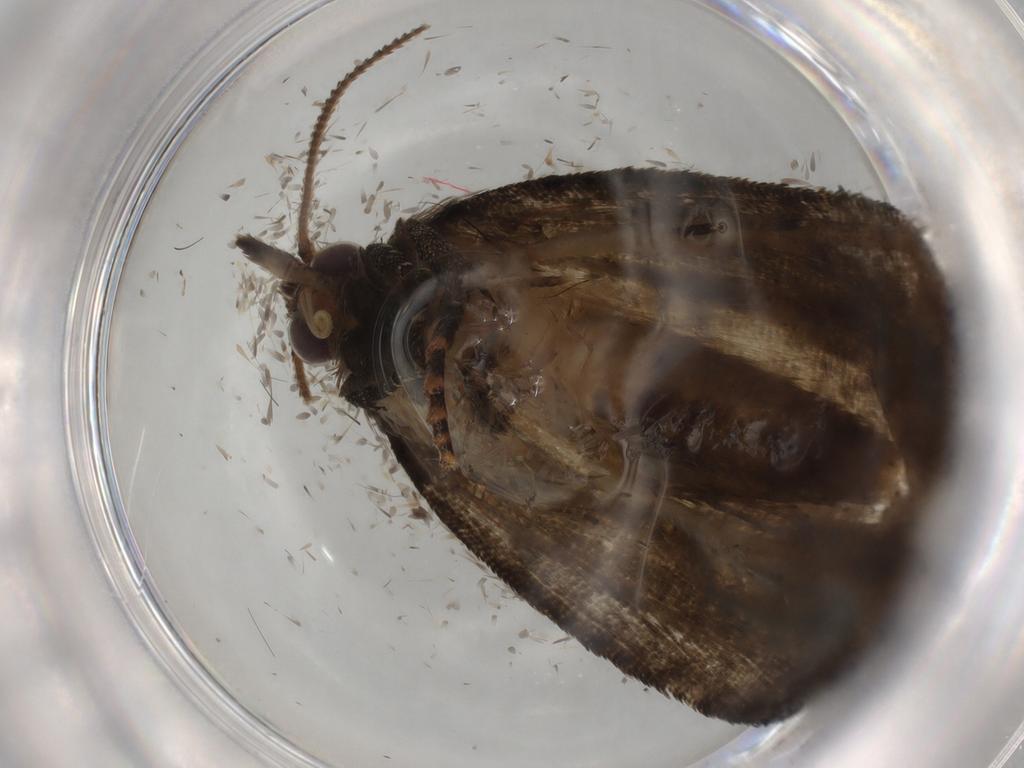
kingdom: Animalia
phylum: Arthropoda
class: Insecta
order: Lepidoptera
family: Tortricidae
